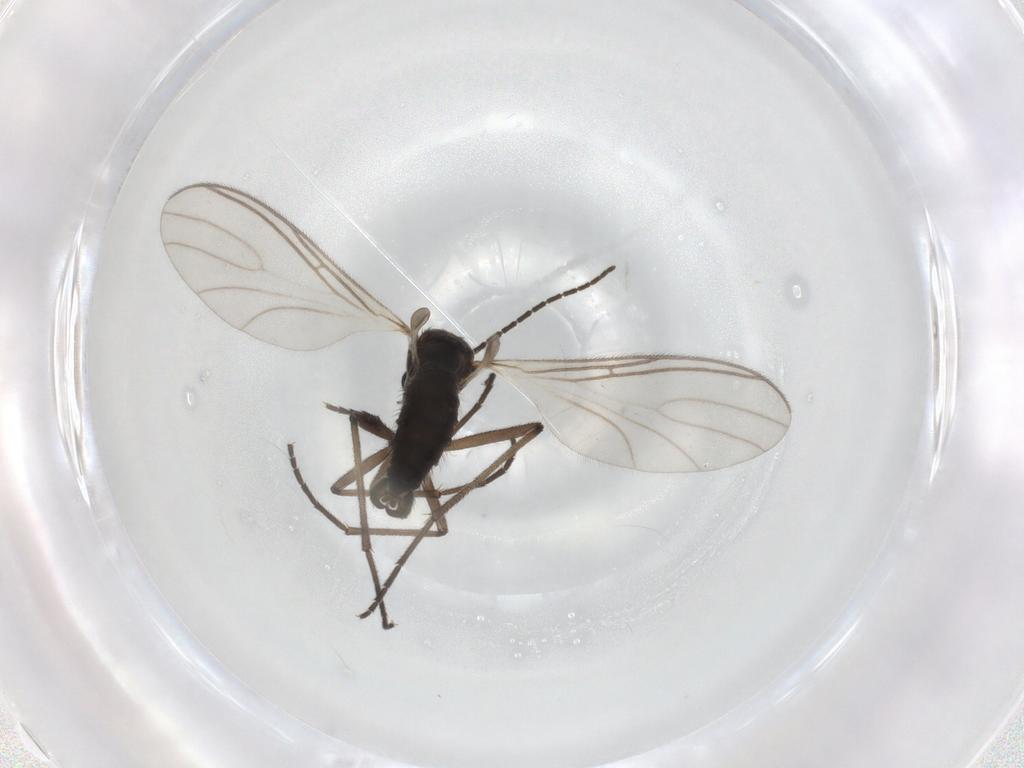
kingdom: Animalia
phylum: Arthropoda
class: Insecta
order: Diptera
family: Sciaridae
